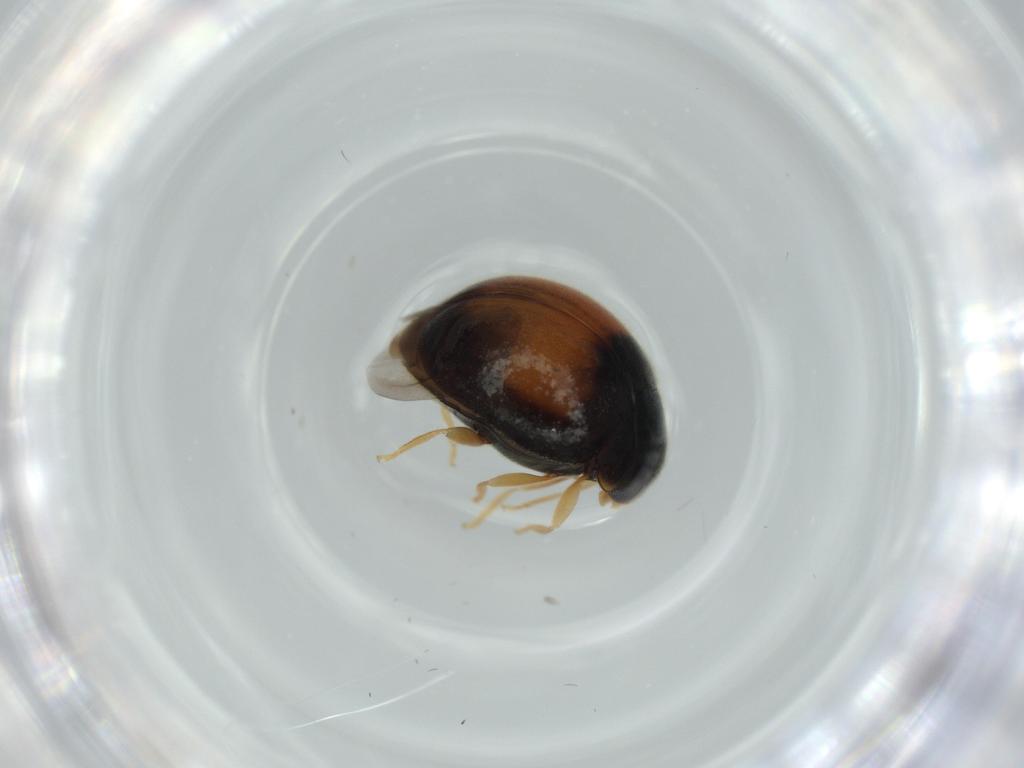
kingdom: Animalia
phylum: Arthropoda
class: Insecta
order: Coleoptera
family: Coccinellidae
